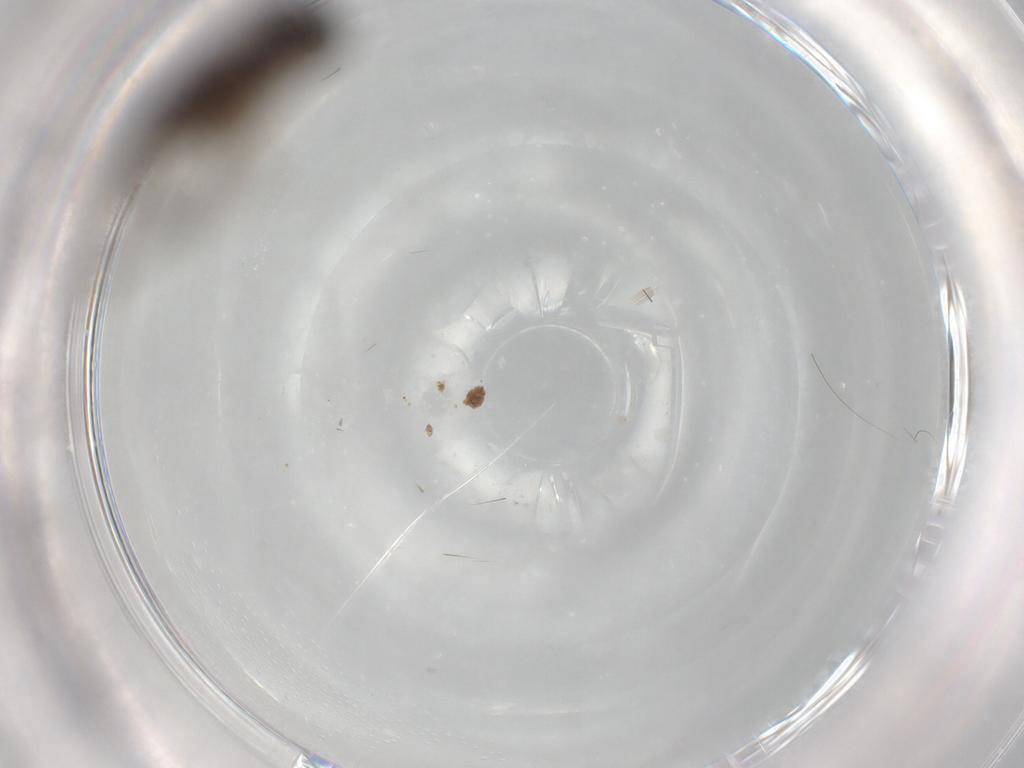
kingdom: Animalia
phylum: Arthropoda
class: Insecta
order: Diptera
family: Sciaridae
